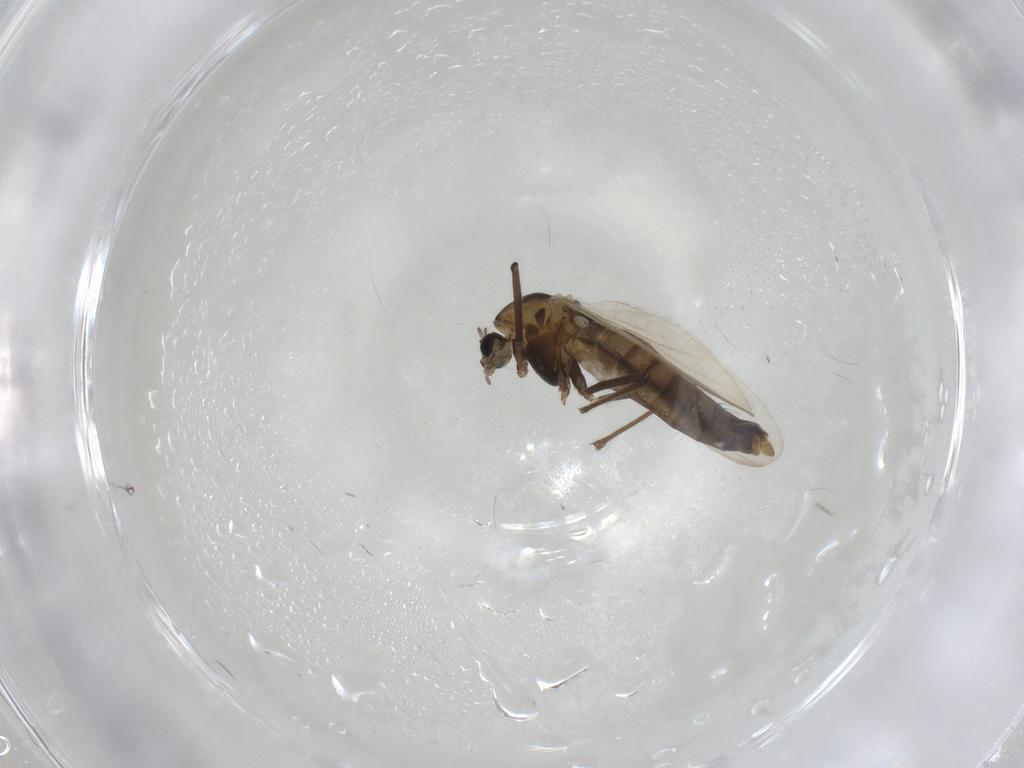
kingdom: Animalia
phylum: Arthropoda
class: Insecta
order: Diptera
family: Chironomidae
